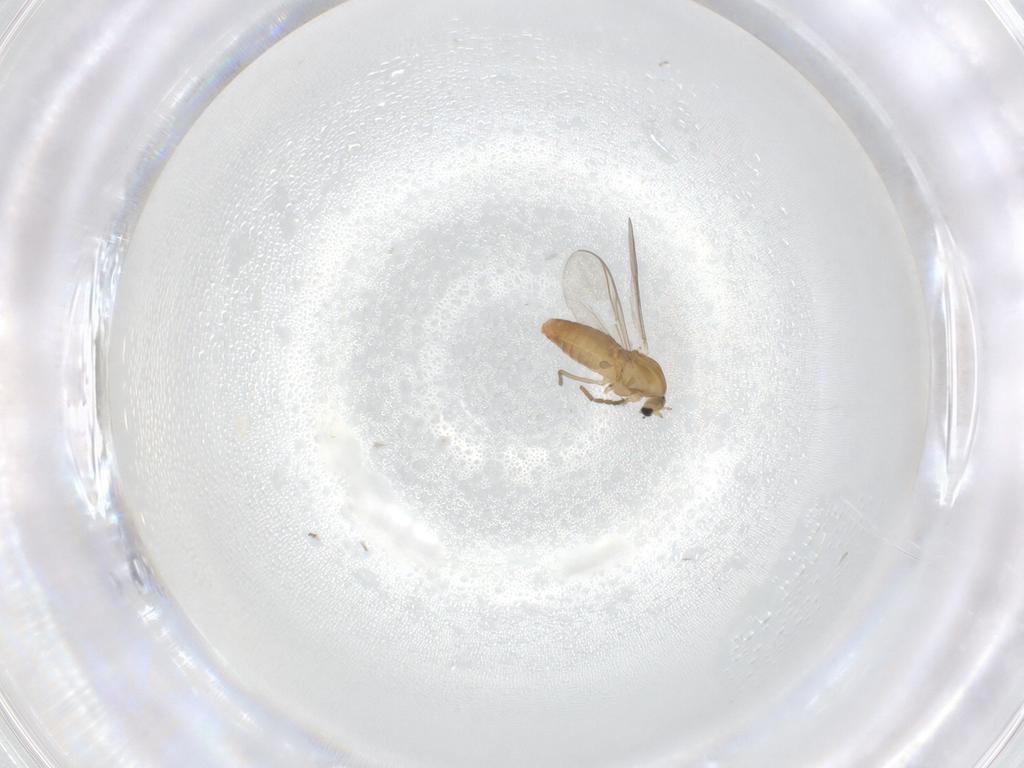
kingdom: Animalia
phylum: Arthropoda
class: Insecta
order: Diptera
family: Chironomidae
